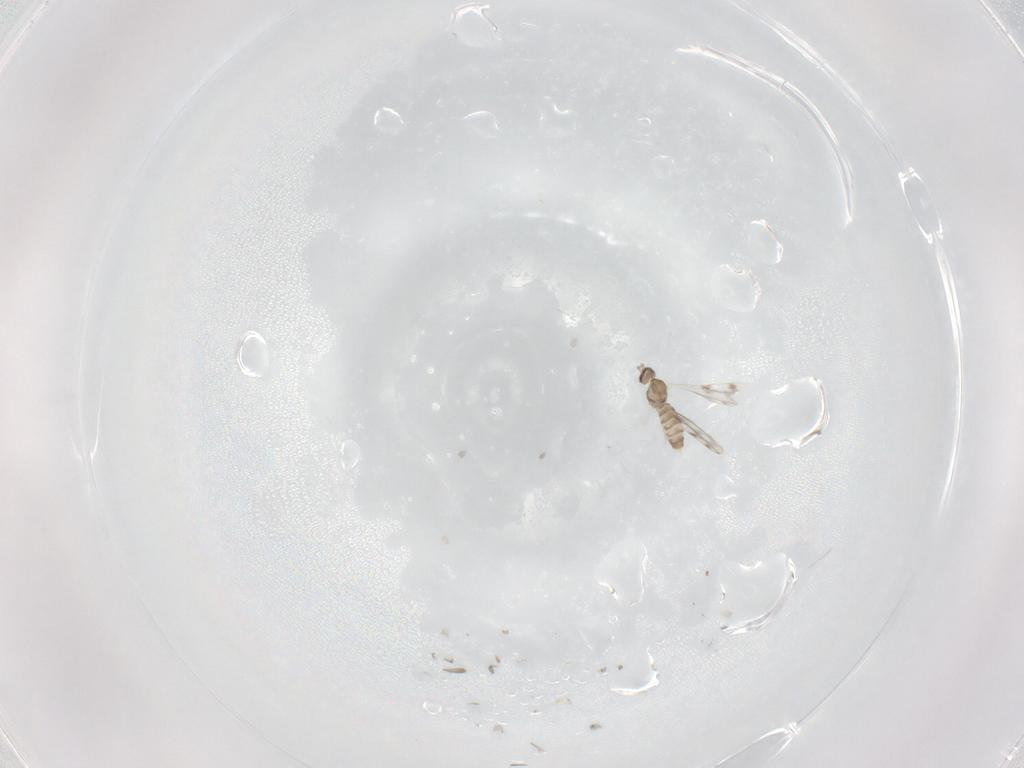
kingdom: Animalia
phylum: Arthropoda
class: Insecta
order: Diptera
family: Cecidomyiidae
